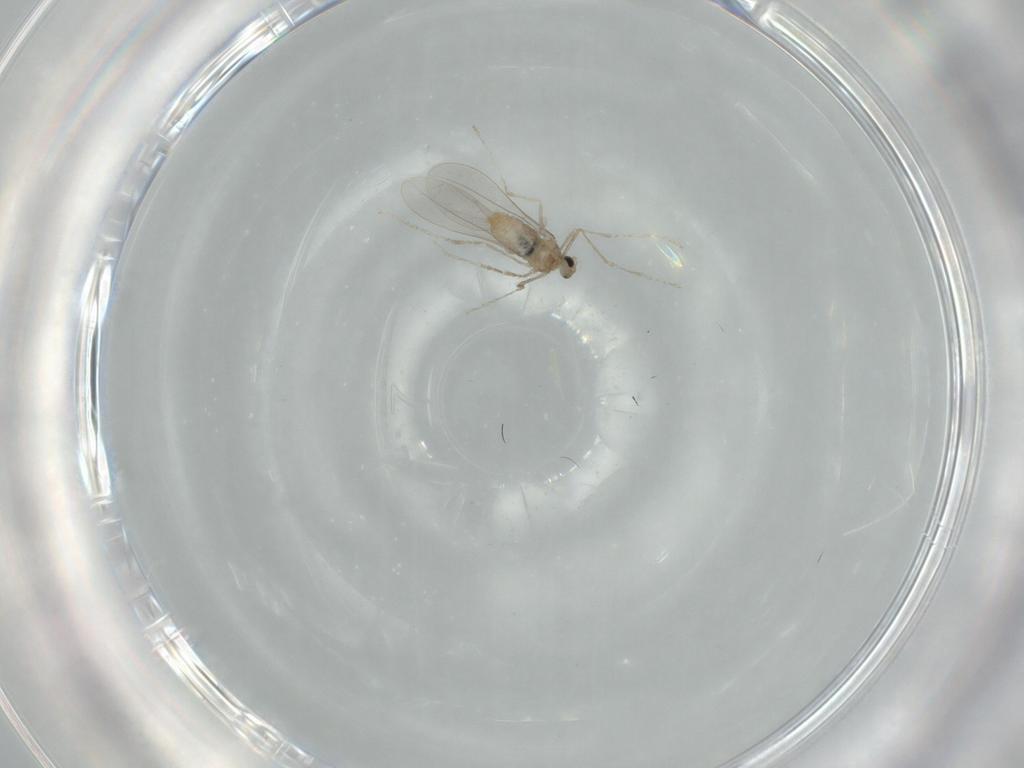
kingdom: Animalia
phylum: Arthropoda
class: Insecta
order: Diptera
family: Cecidomyiidae
